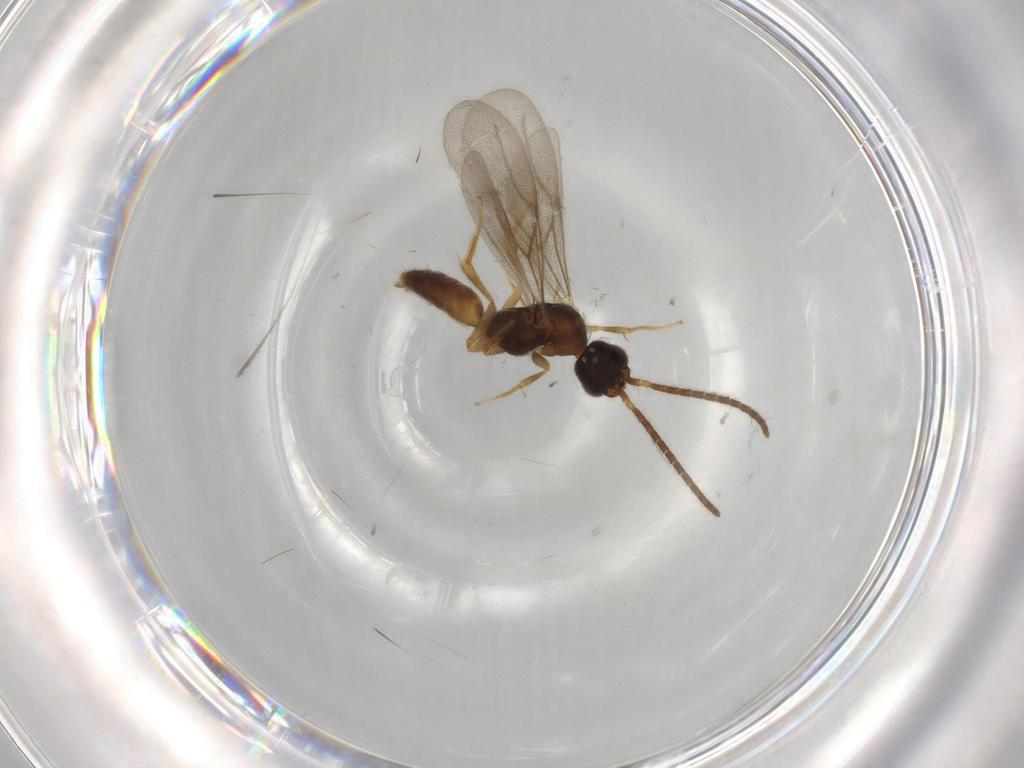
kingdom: Animalia
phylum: Arthropoda
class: Insecta
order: Hymenoptera
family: Bethylidae
